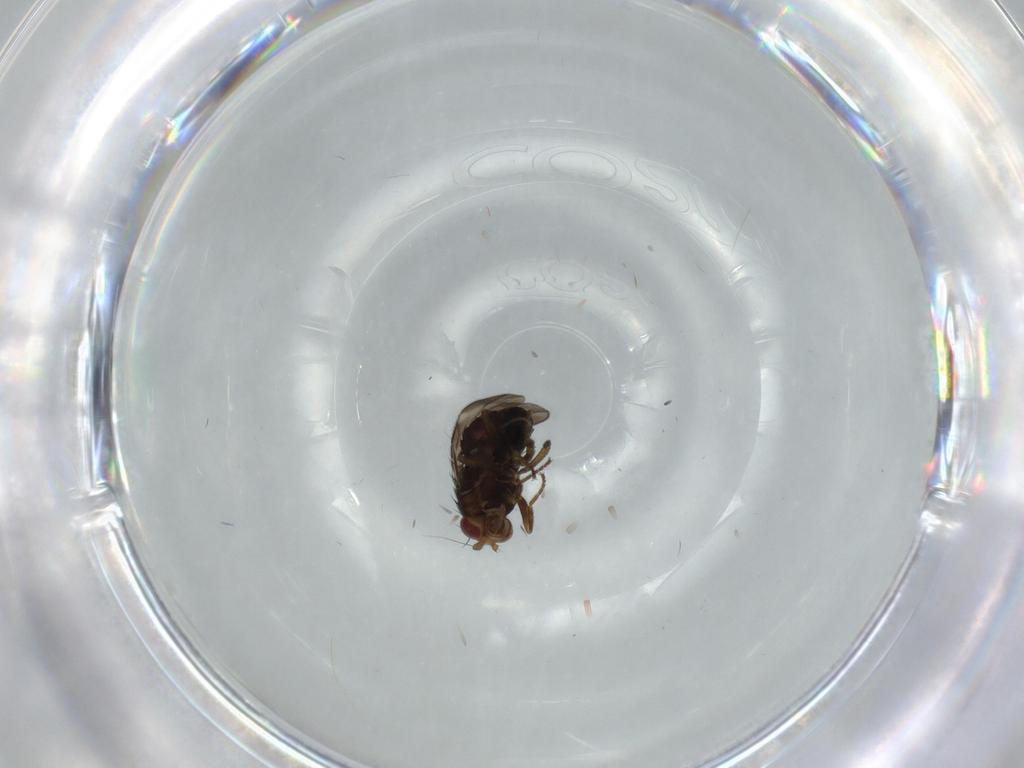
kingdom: Animalia
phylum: Arthropoda
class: Insecta
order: Diptera
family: Sphaeroceridae
